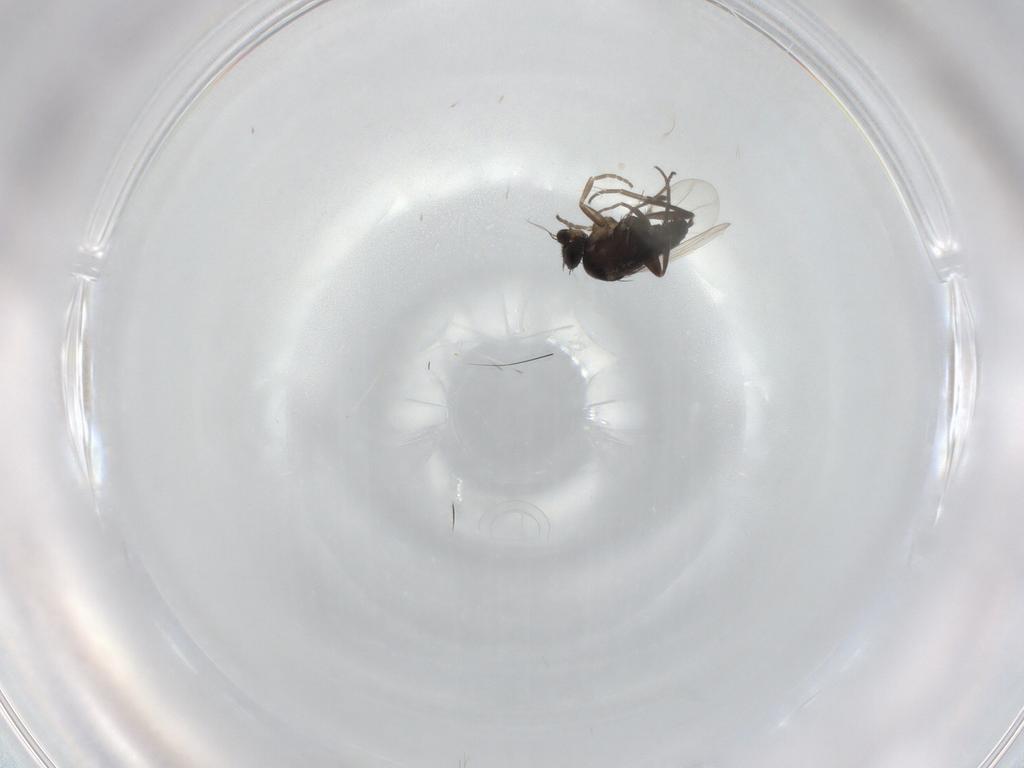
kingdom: Animalia
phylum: Arthropoda
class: Insecta
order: Diptera
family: Phoridae
